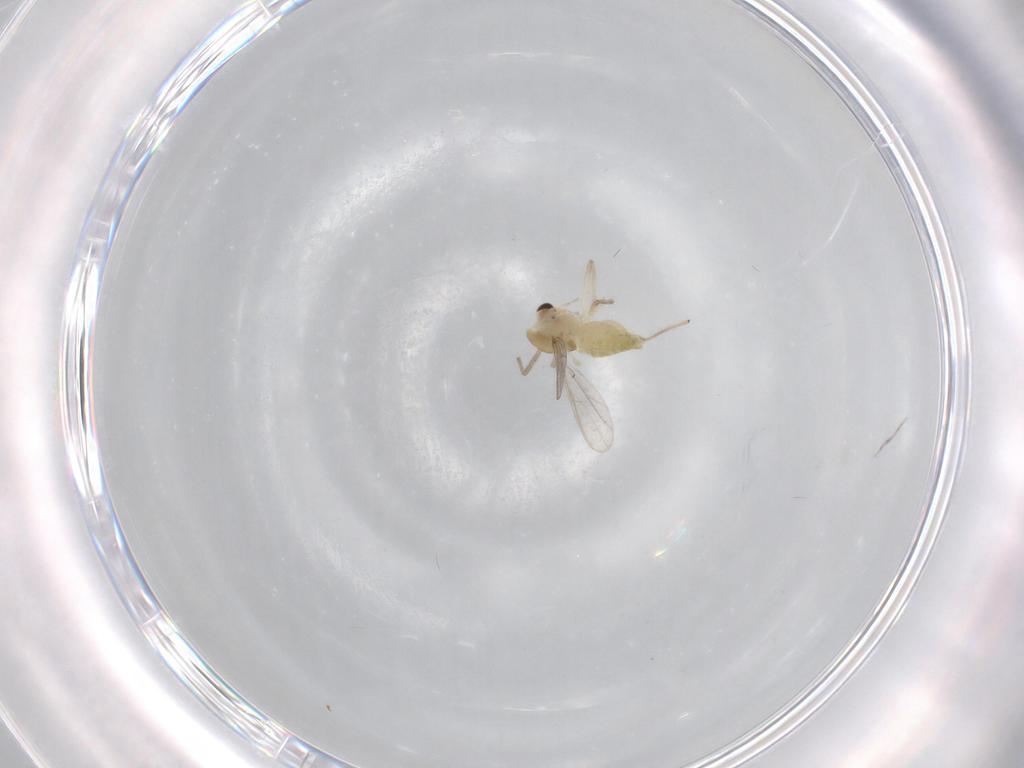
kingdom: Animalia
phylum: Arthropoda
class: Insecta
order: Diptera
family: Chironomidae
